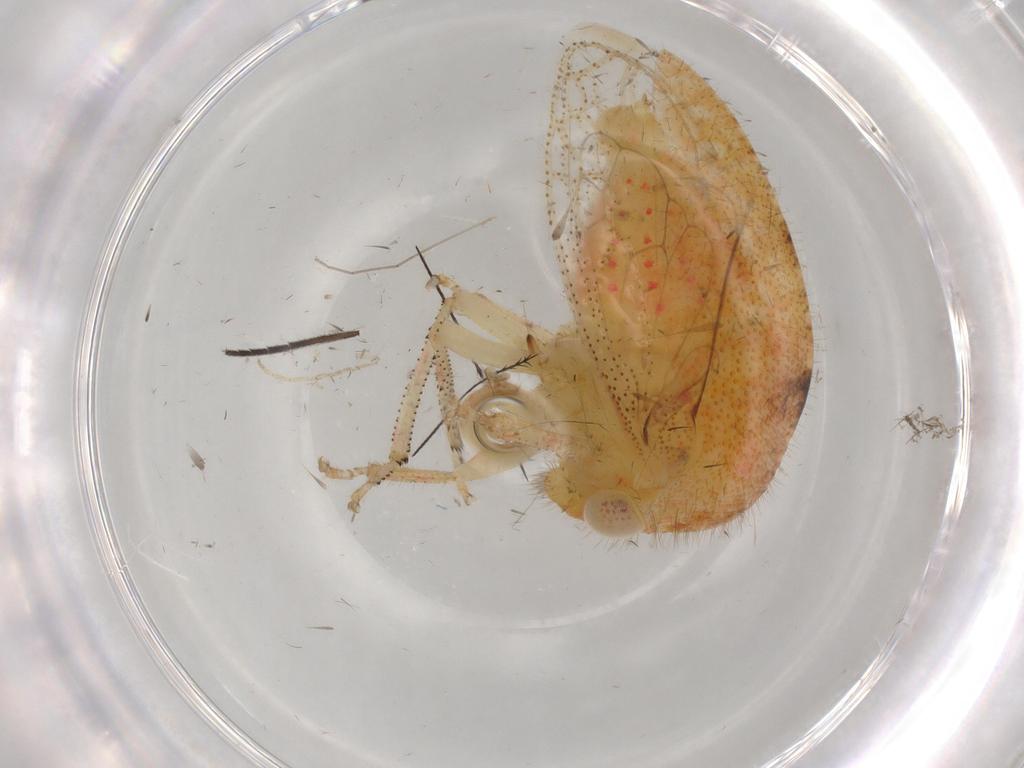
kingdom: Animalia
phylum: Arthropoda
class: Insecta
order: Hemiptera
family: Membracidae
